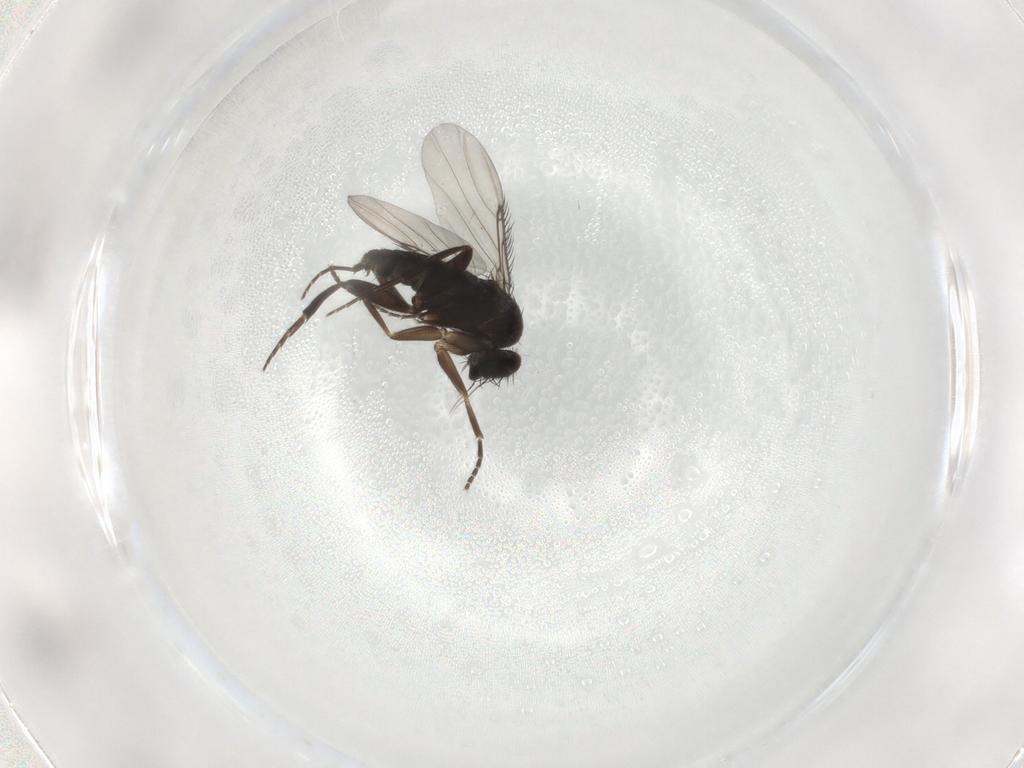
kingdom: Animalia
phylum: Arthropoda
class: Insecta
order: Diptera
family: Phoridae
